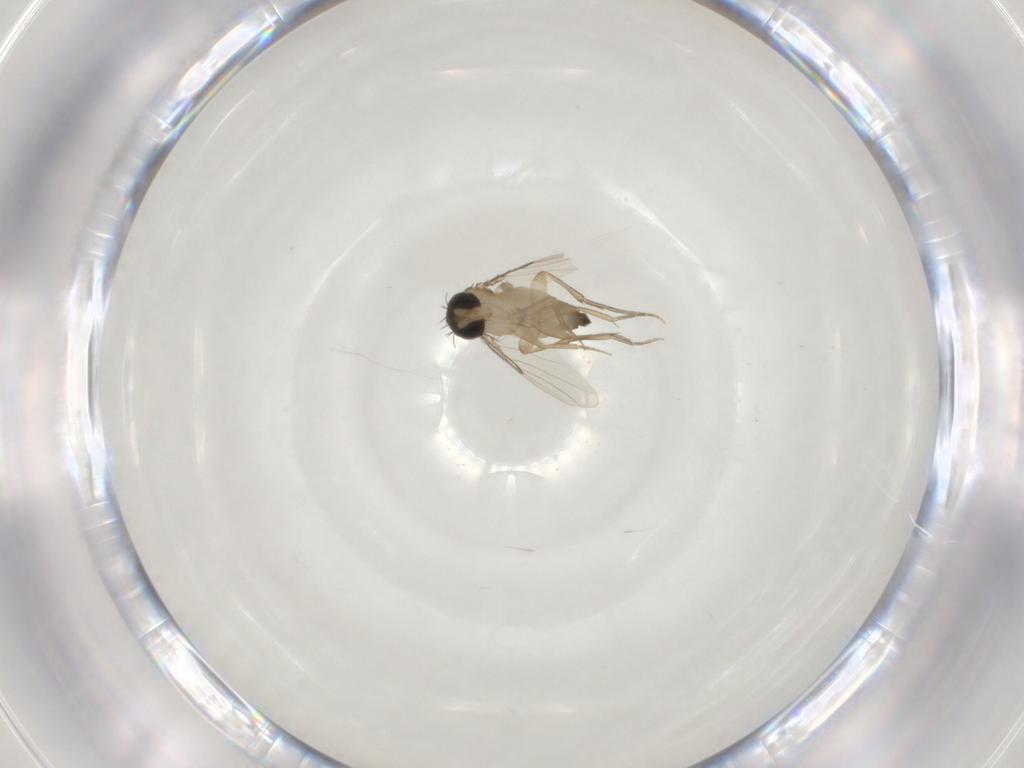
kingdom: Animalia
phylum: Arthropoda
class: Insecta
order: Diptera
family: Phoridae
